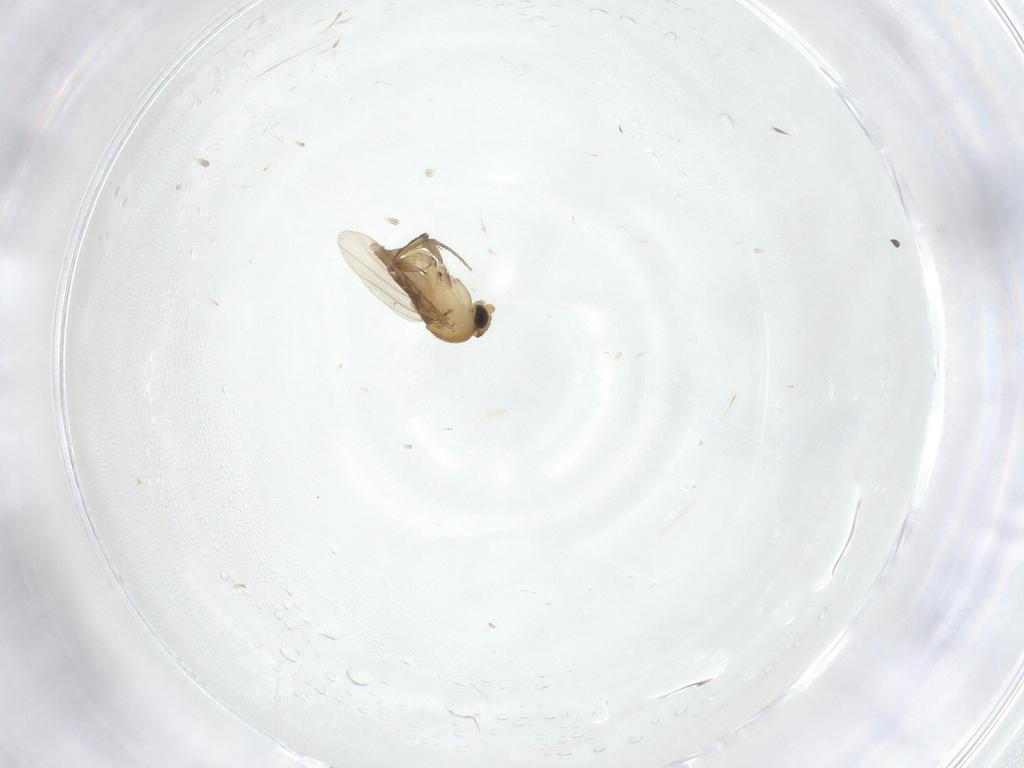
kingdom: Animalia
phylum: Arthropoda
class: Insecta
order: Diptera
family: Phoridae
